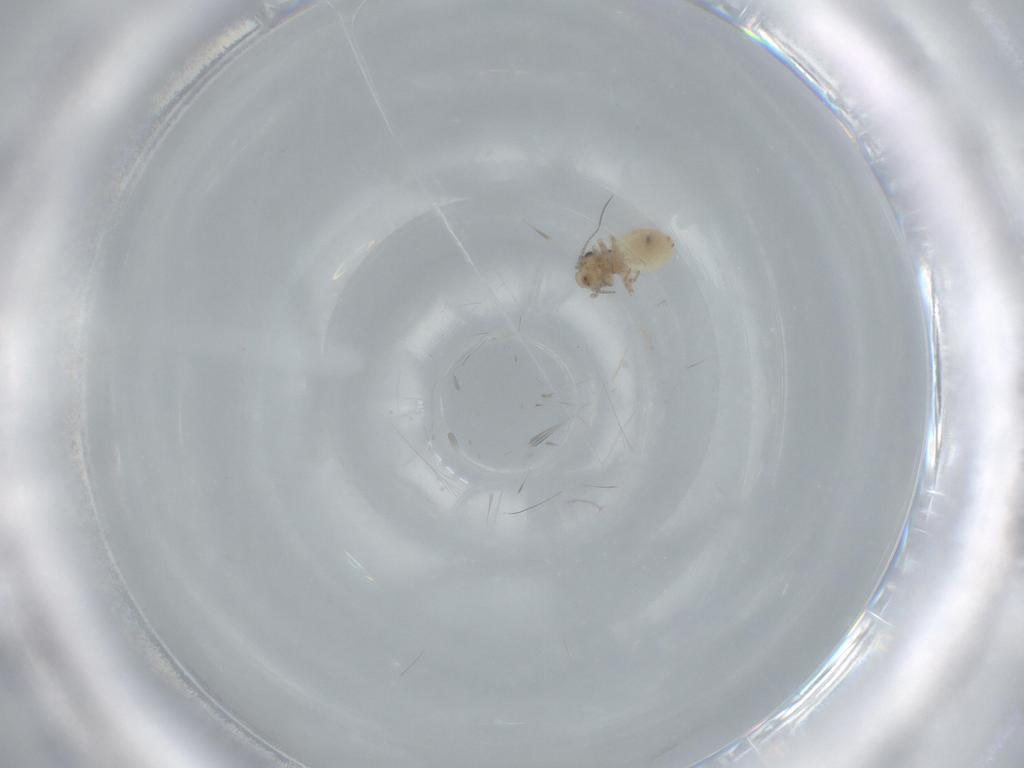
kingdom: Animalia
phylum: Arthropoda
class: Insecta
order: Psocodea
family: Lepidopsocidae
